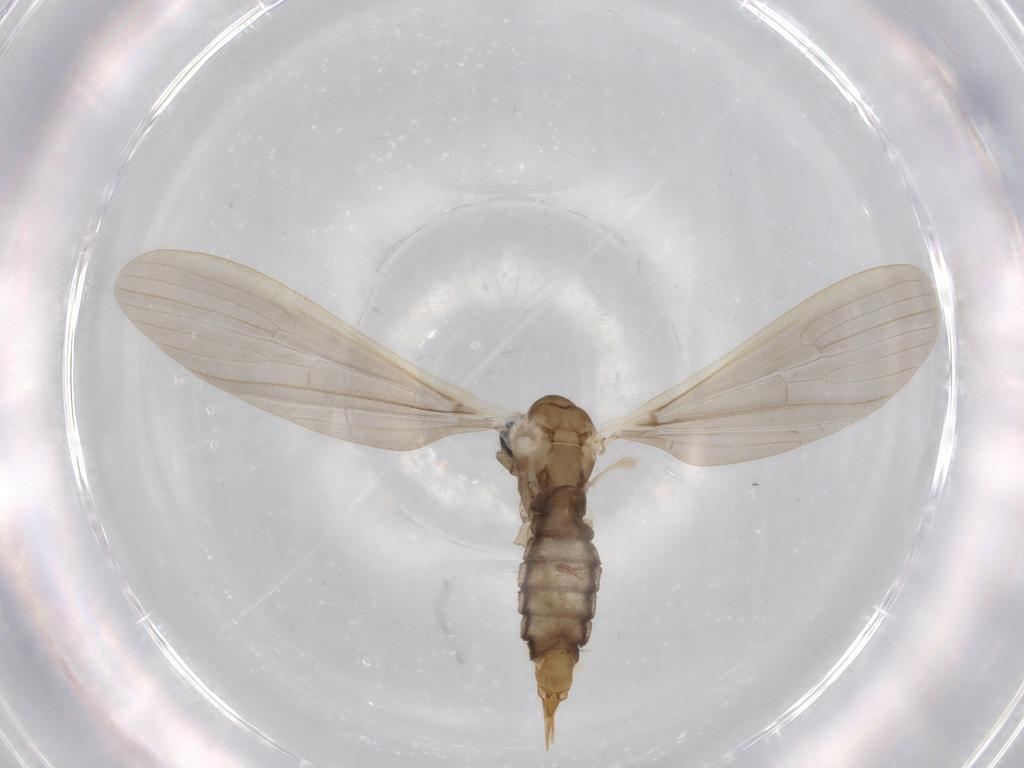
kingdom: Animalia
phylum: Arthropoda
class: Insecta
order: Diptera
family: Limoniidae
